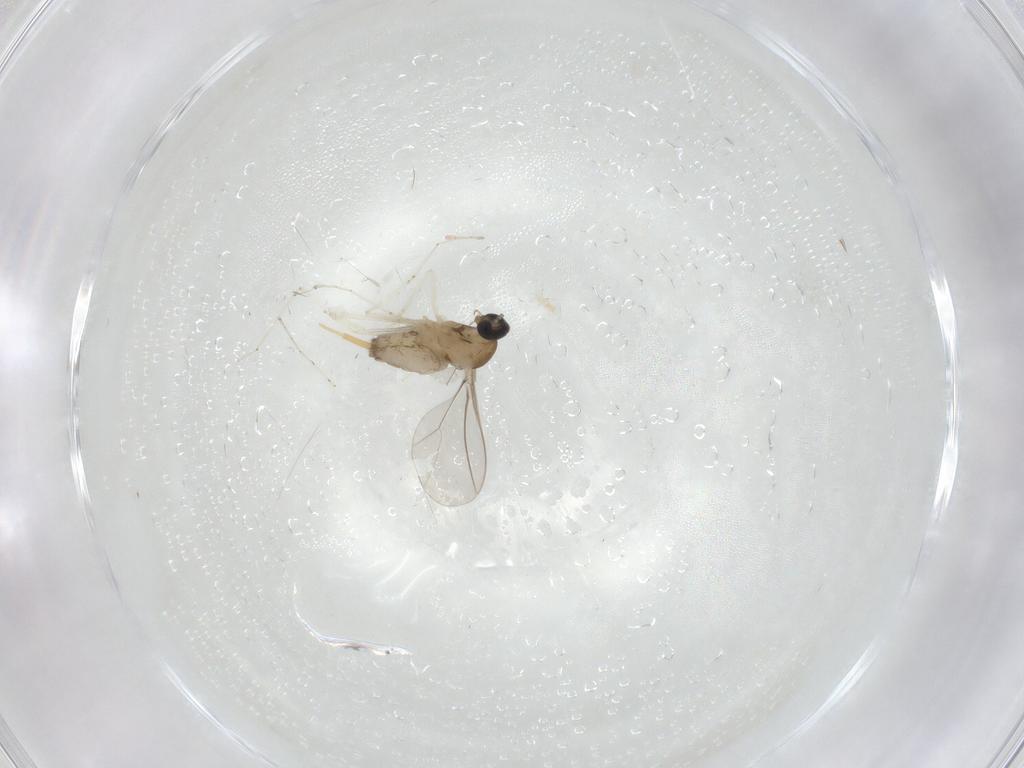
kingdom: Animalia
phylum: Arthropoda
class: Insecta
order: Diptera
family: Cecidomyiidae
